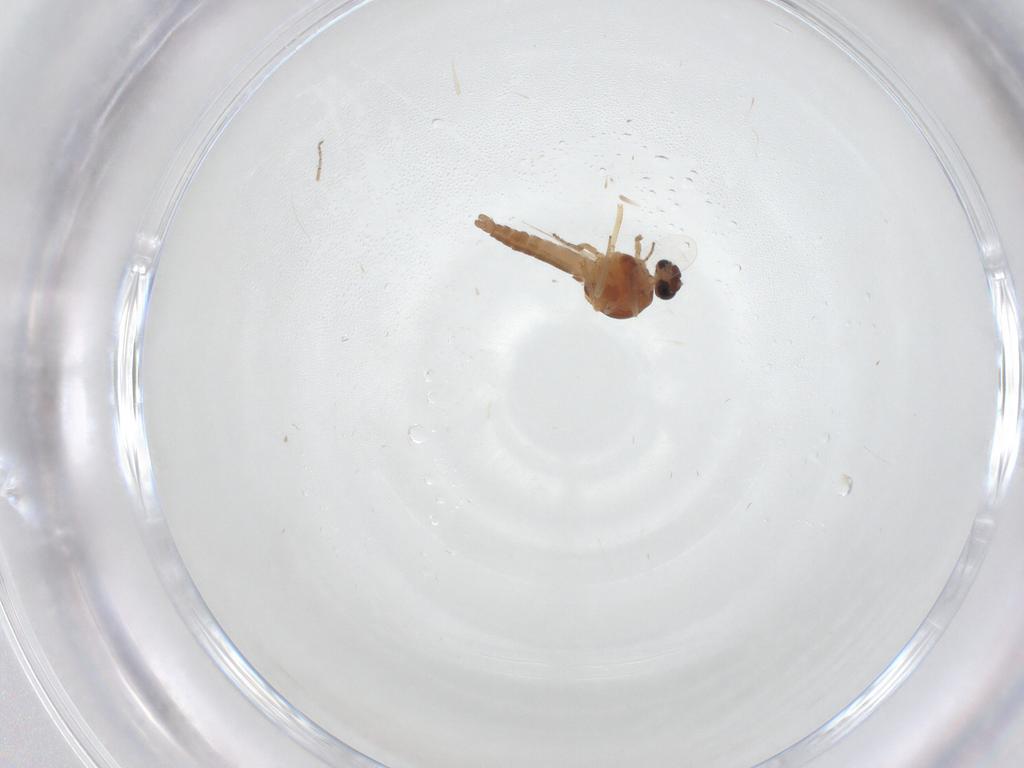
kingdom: Animalia
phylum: Arthropoda
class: Insecta
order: Diptera
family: Ceratopogonidae
